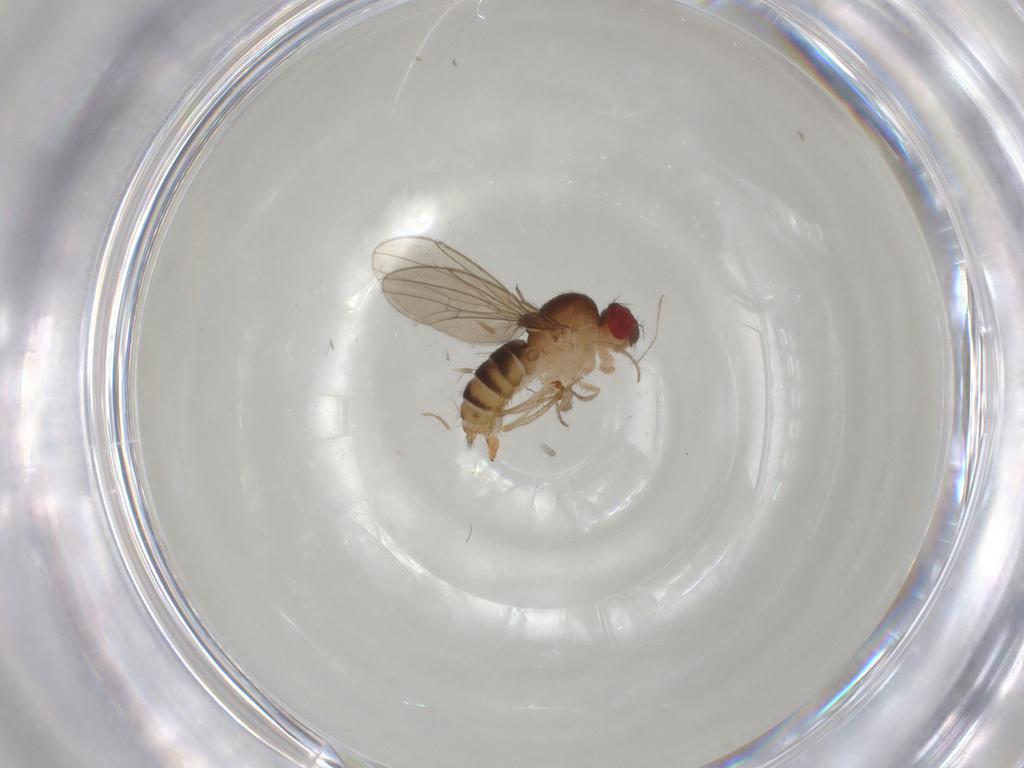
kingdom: Animalia
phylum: Arthropoda
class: Insecta
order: Diptera
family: Drosophilidae
